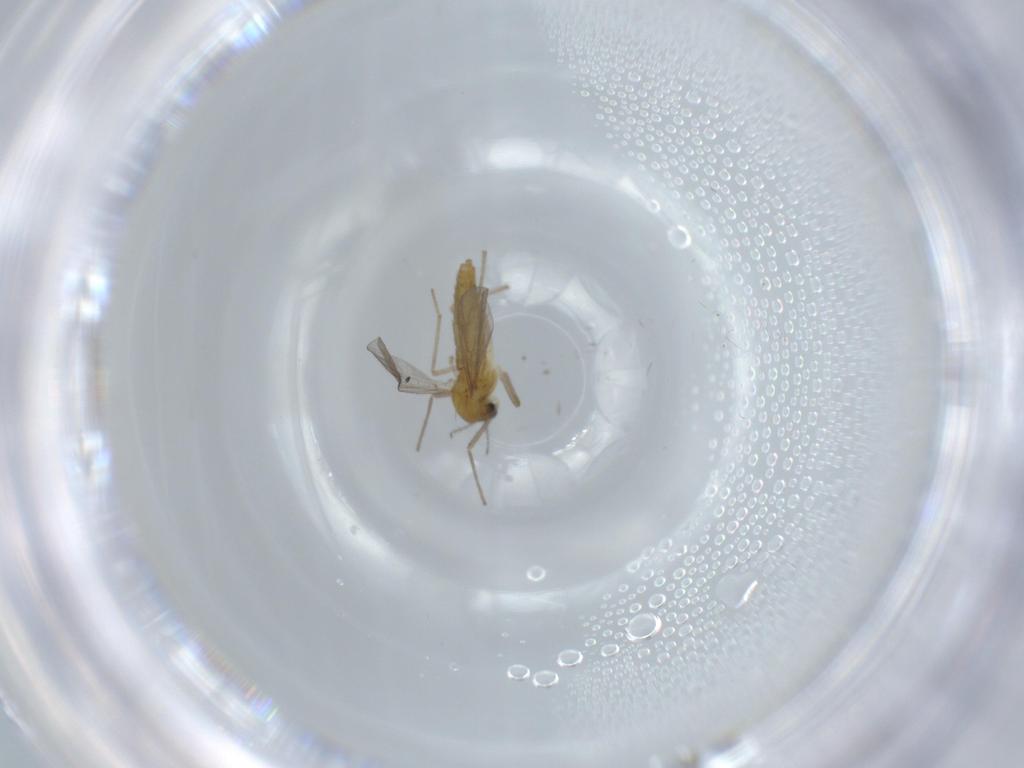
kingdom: Animalia
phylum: Arthropoda
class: Insecta
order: Diptera
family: Chironomidae
